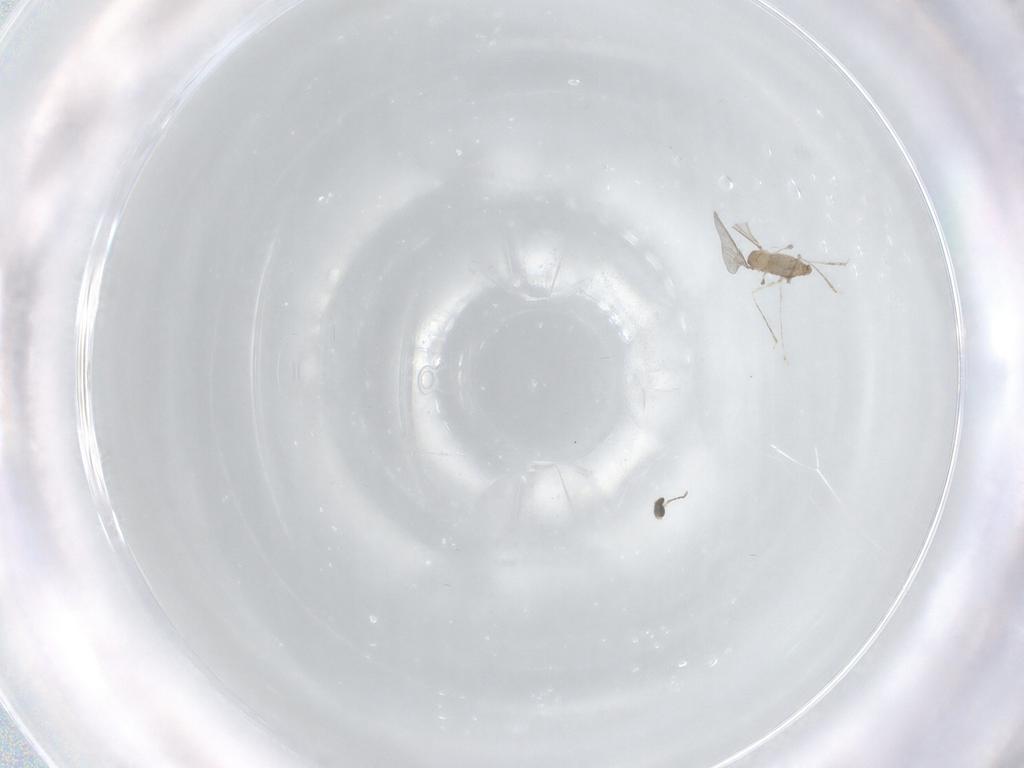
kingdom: Animalia
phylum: Arthropoda
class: Insecta
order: Diptera
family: Cecidomyiidae
